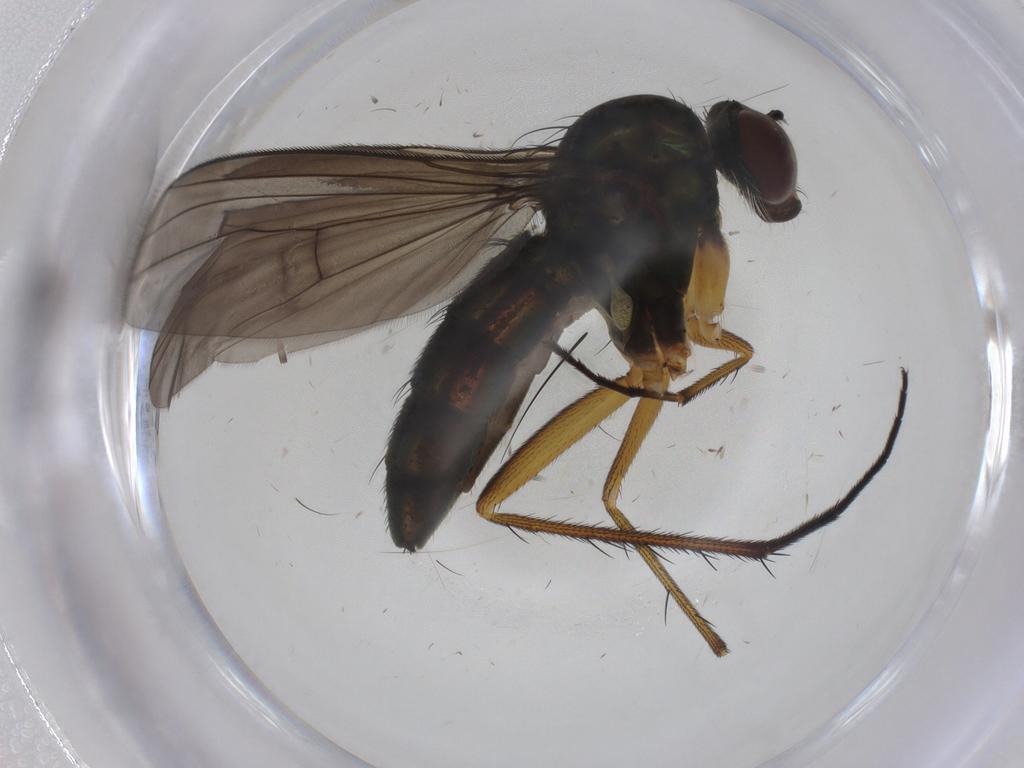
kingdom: Animalia
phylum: Arthropoda
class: Insecta
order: Diptera
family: Dolichopodidae
